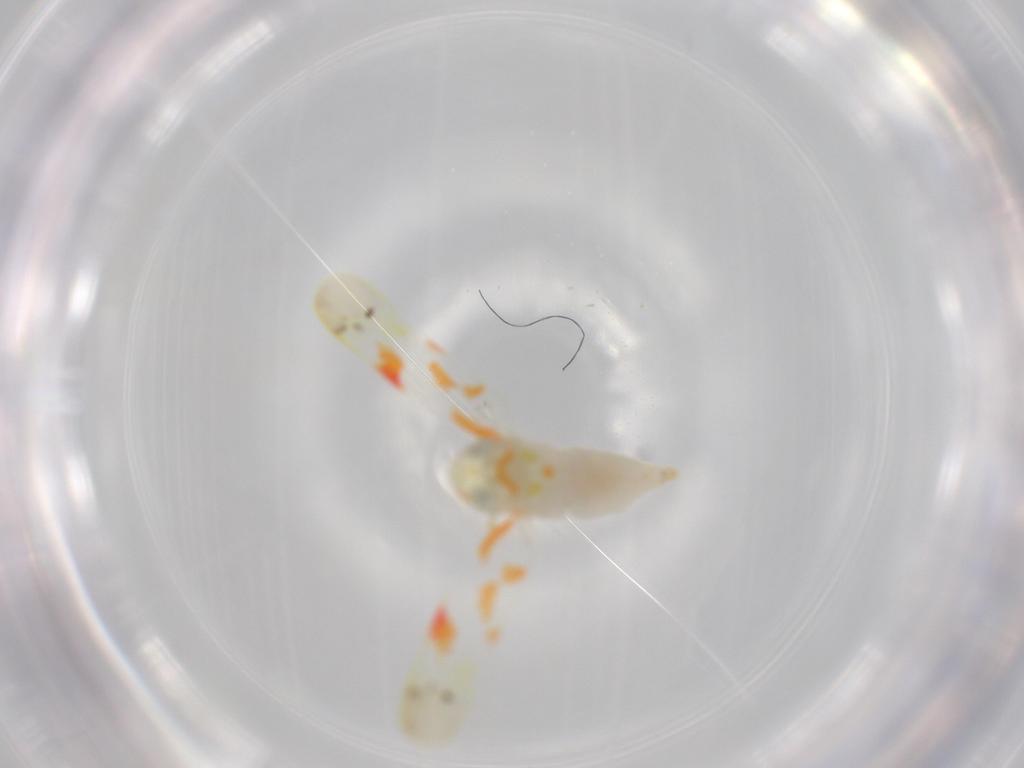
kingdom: Animalia
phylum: Arthropoda
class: Insecta
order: Hemiptera
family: Cicadellidae
